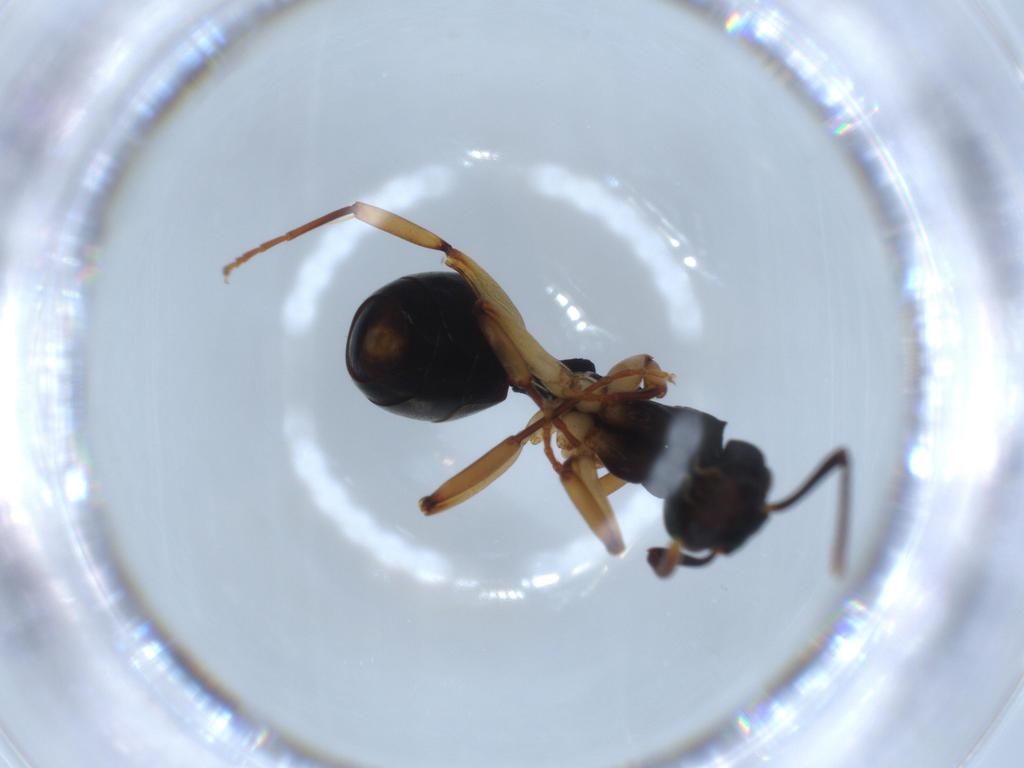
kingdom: Animalia
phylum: Arthropoda
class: Insecta
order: Hymenoptera
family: Formicidae
